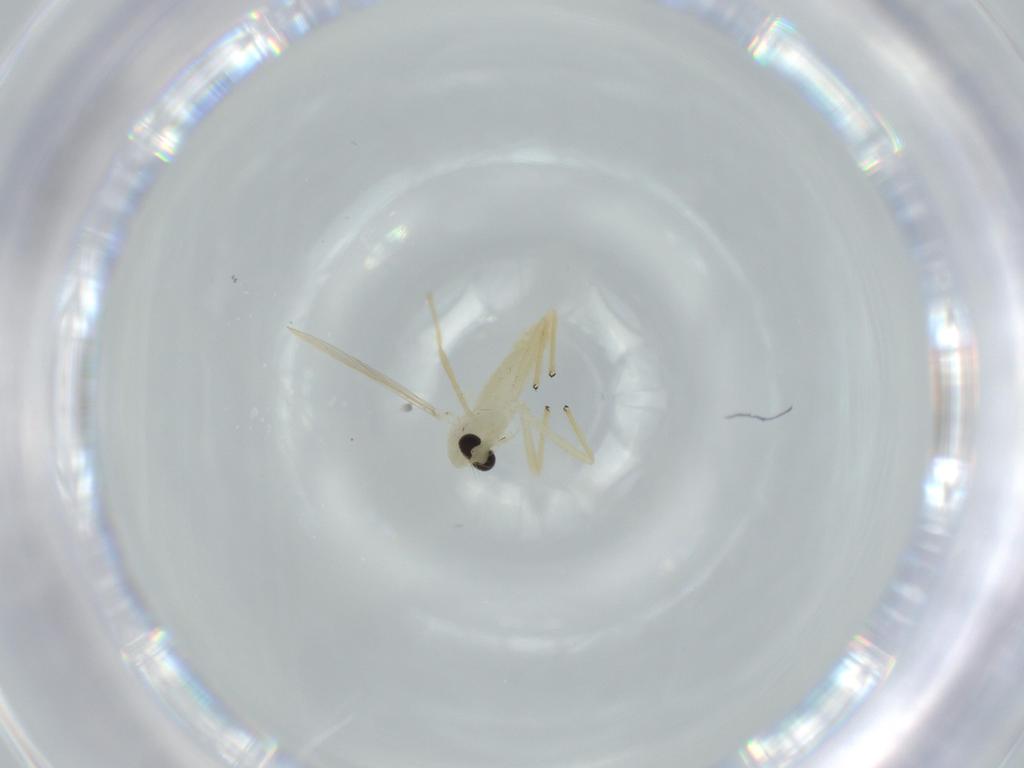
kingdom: Animalia
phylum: Arthropoda
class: Insecta
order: Diptera
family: Chironomidae
